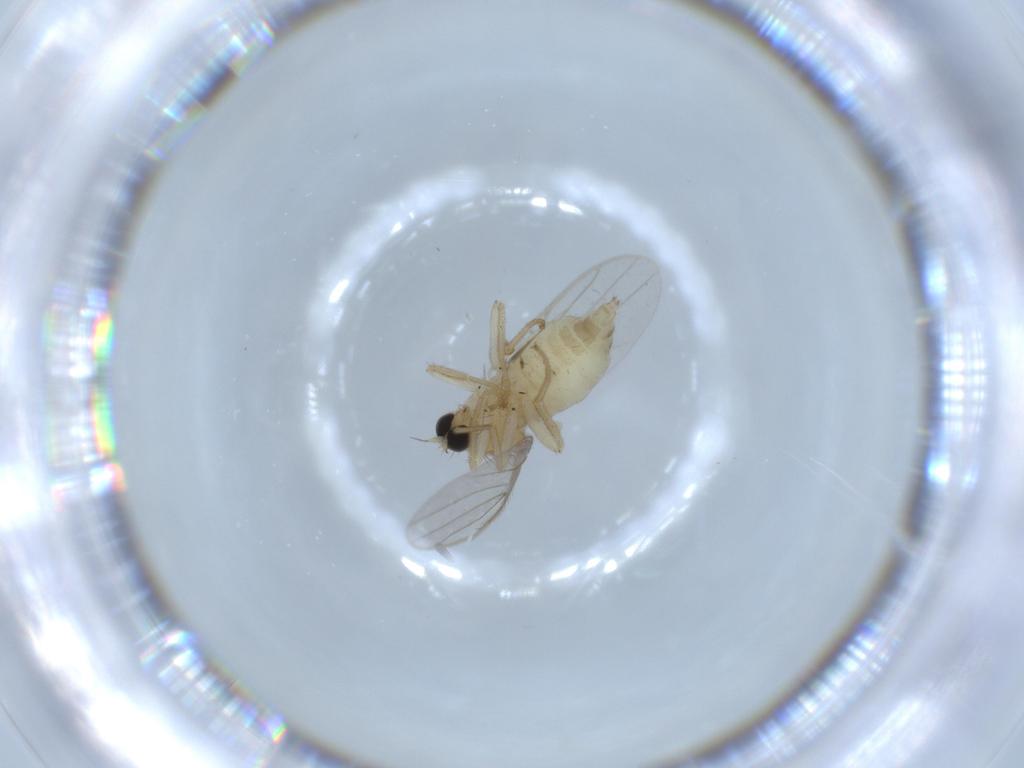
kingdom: Animalia
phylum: Arthropoda
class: Insecta
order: Diptera
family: Hybotidae
